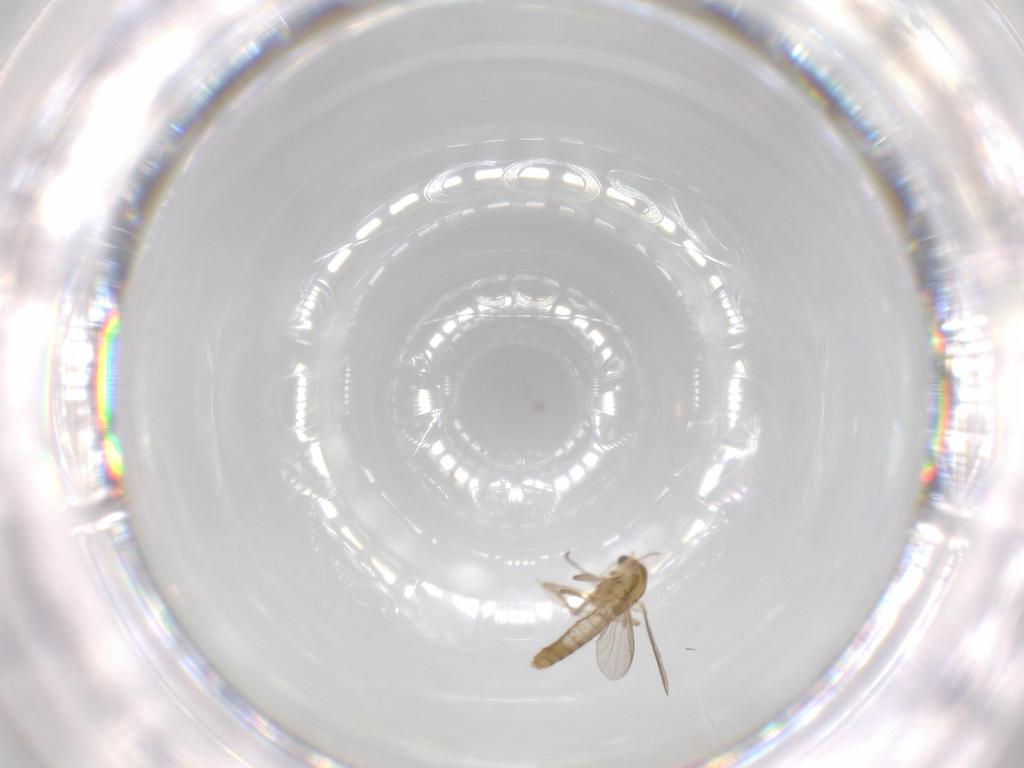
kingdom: Animalia
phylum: Arthropoda
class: Insecta
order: Diptera
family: Chironomidae
